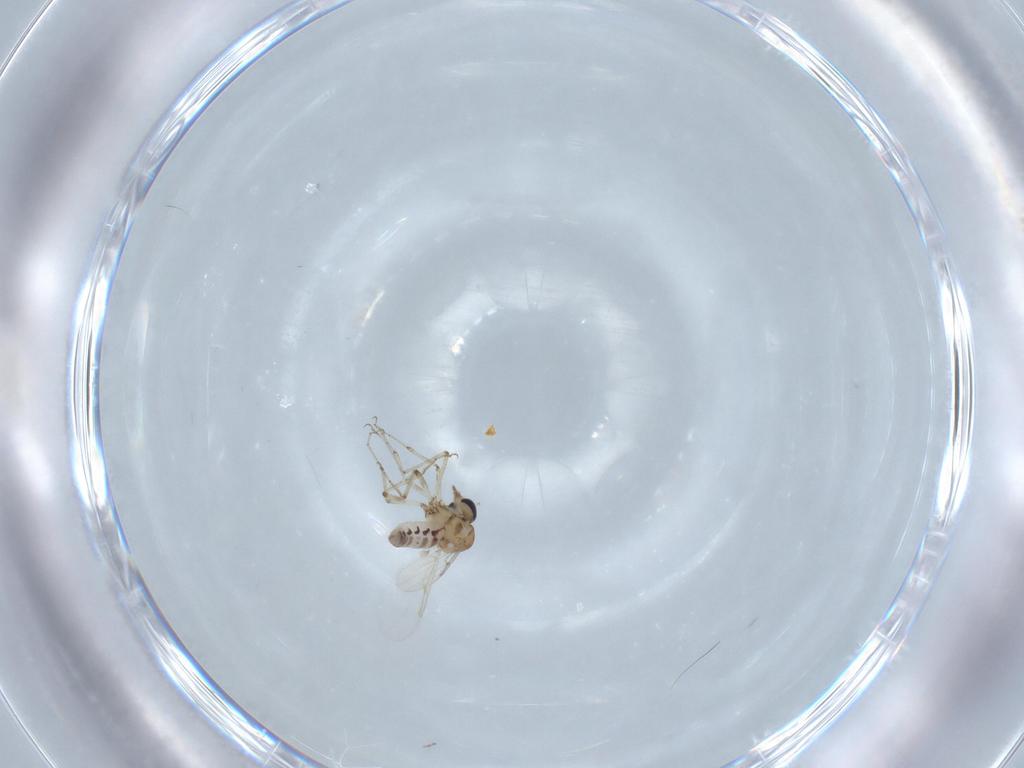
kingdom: Animalia
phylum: Arthropoda
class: Insecta
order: Diptera
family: Ceratopogonidae
